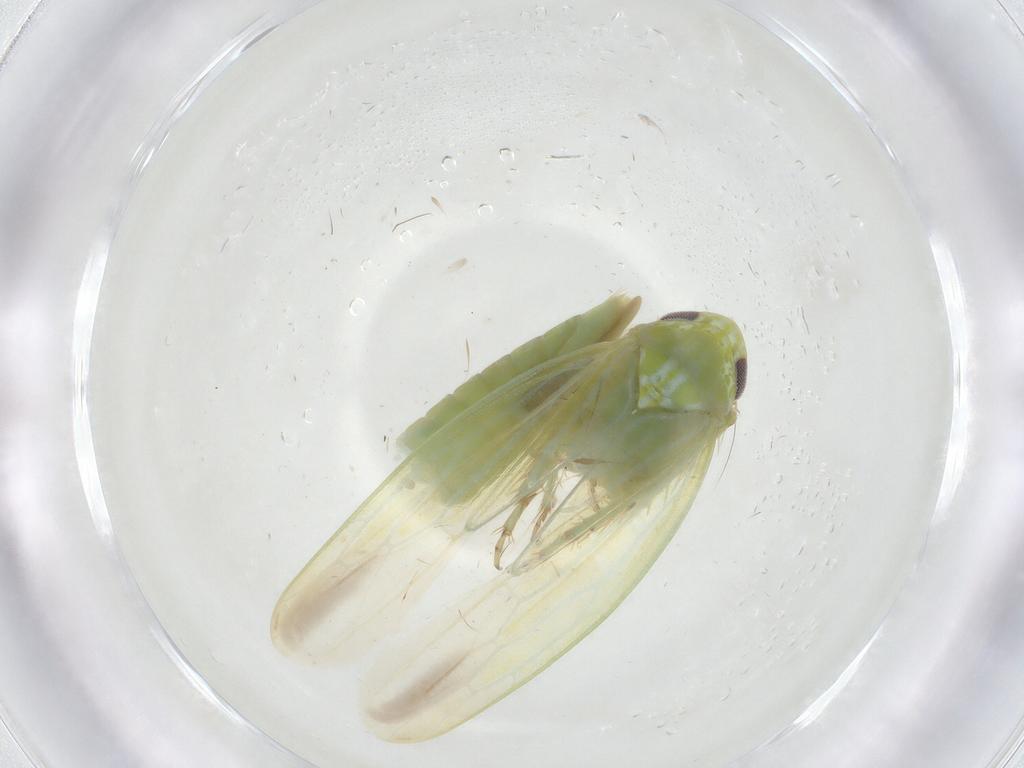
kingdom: Animalia
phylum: Arthropoda
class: Insecta
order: Hemiptera
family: Cicadellidae
